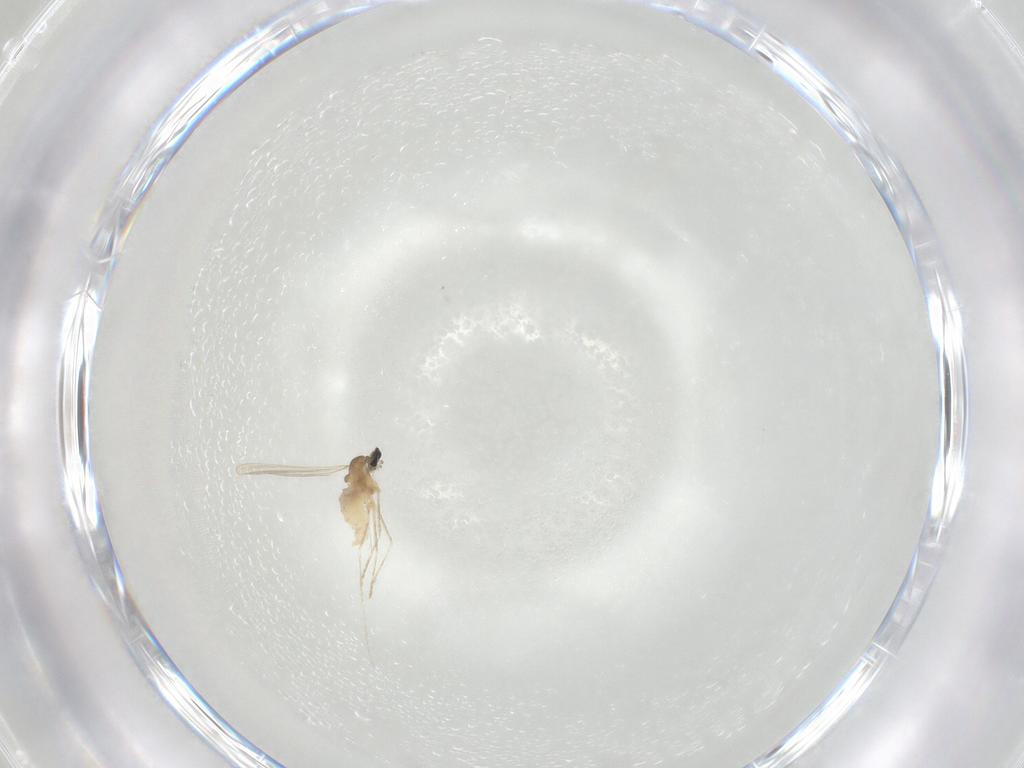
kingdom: Animalia
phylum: Arthropoda
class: Insecta
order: Diptera
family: Cecidomyiidae
